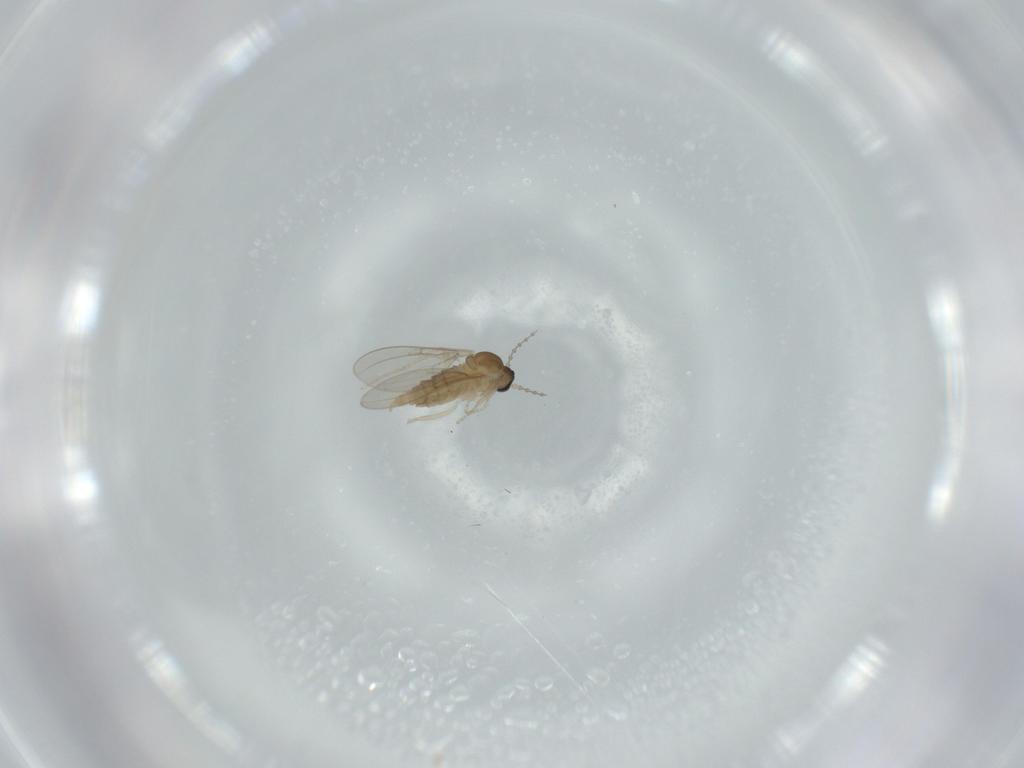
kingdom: Animalia
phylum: Arthropoda
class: Insecta
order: Diptera
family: Cecidomyiidae
